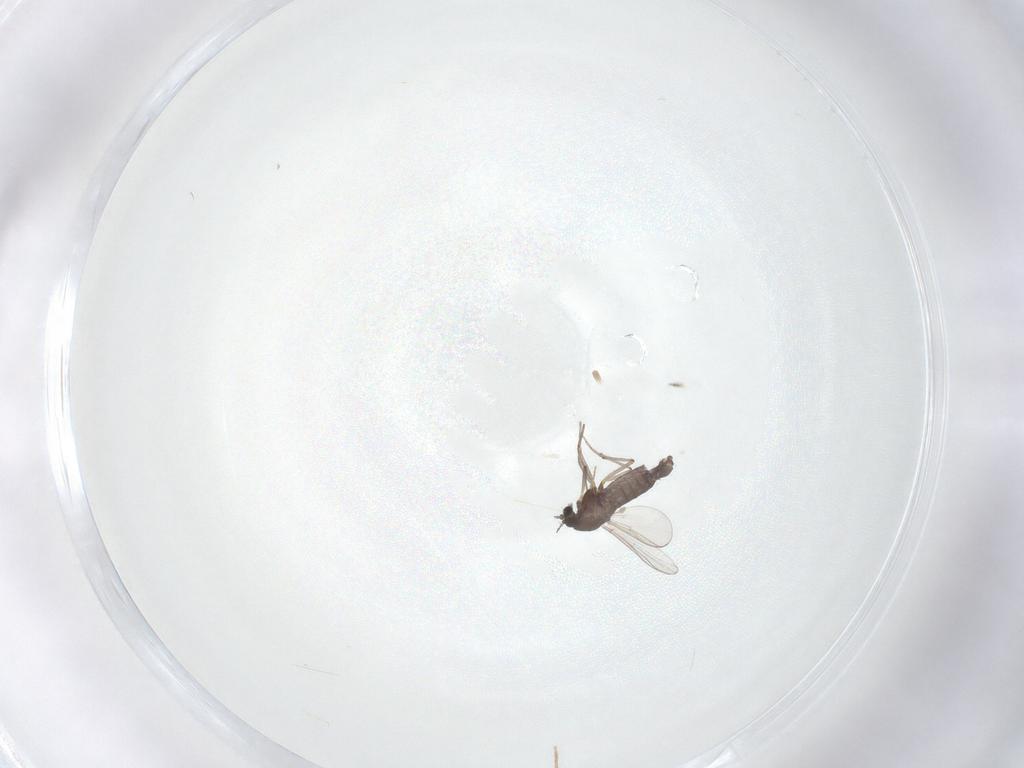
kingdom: Animalia
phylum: Arthropoda
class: Insecta
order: Diptera
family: Chironomidae
